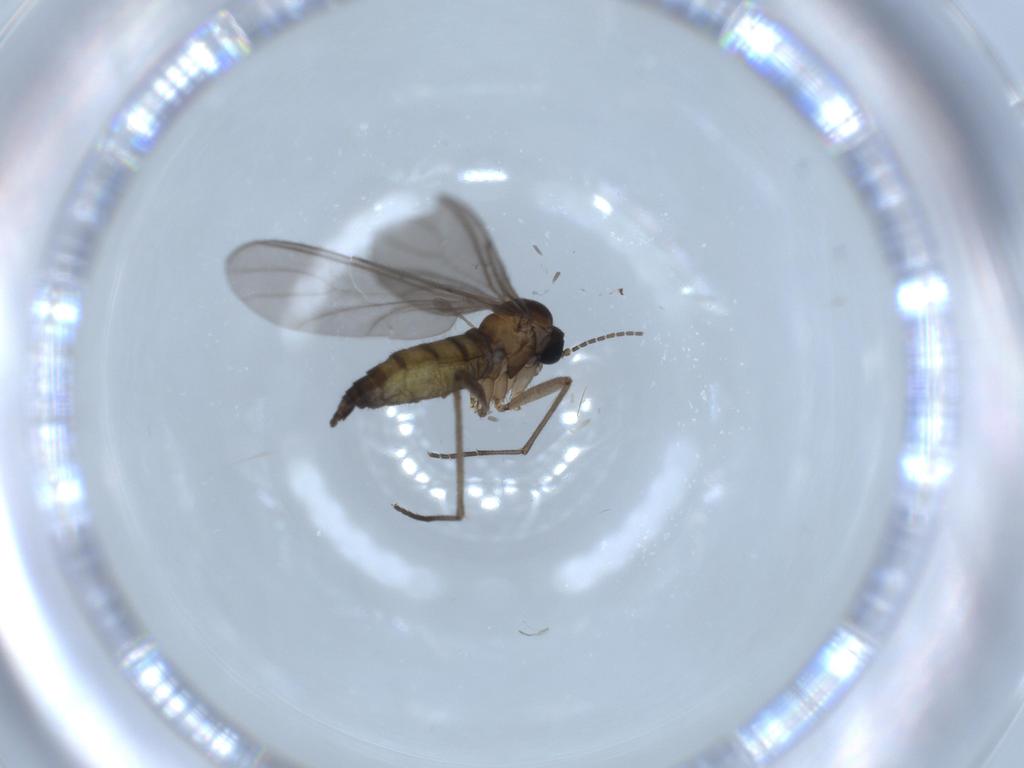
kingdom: Animalia
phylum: Arthropoda
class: Insecta
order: Diptera
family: Sciaridae
